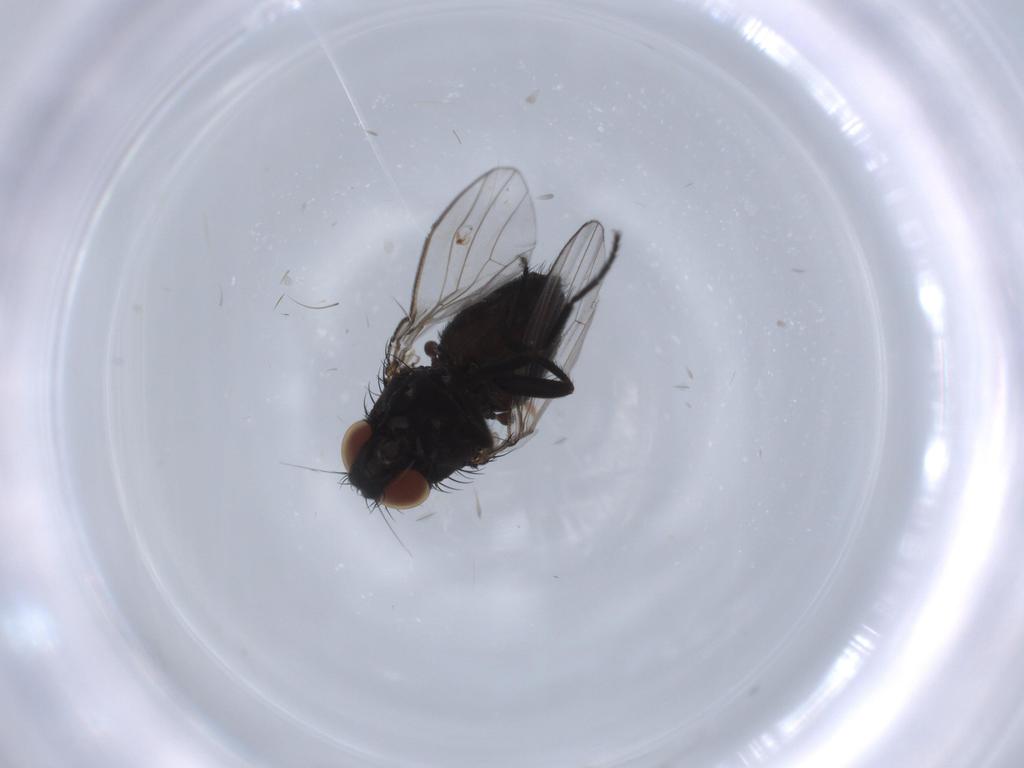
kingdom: Animalia
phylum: Arthropoda
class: Insecta
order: Diptera
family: Milichiidae
